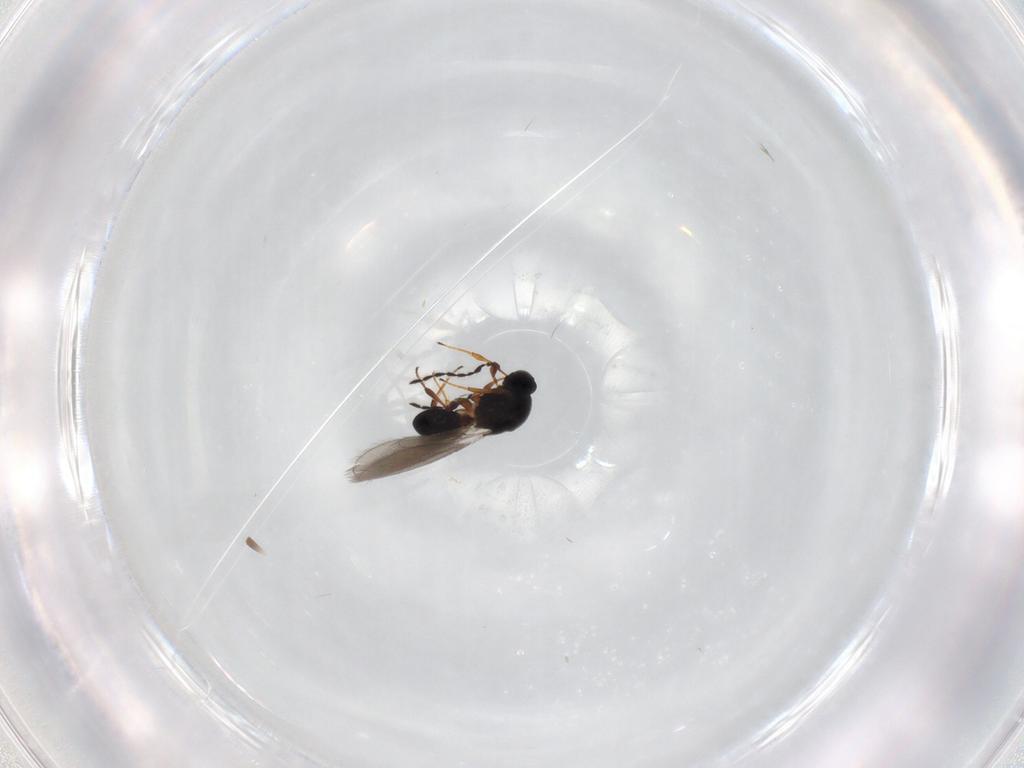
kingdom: Animalia
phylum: Arthropoda
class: Insecta
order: Hymenoptera
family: Platygastridae
